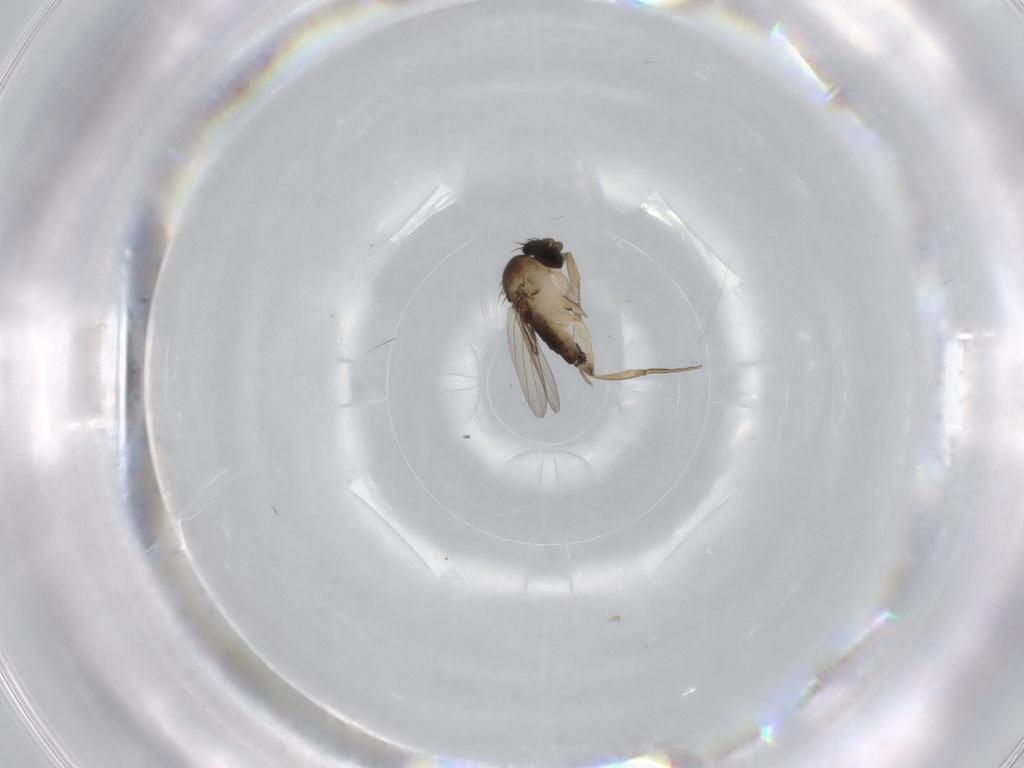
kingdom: Animalia
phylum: Arthropoda
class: Insecta
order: Diptera
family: Phoridae
